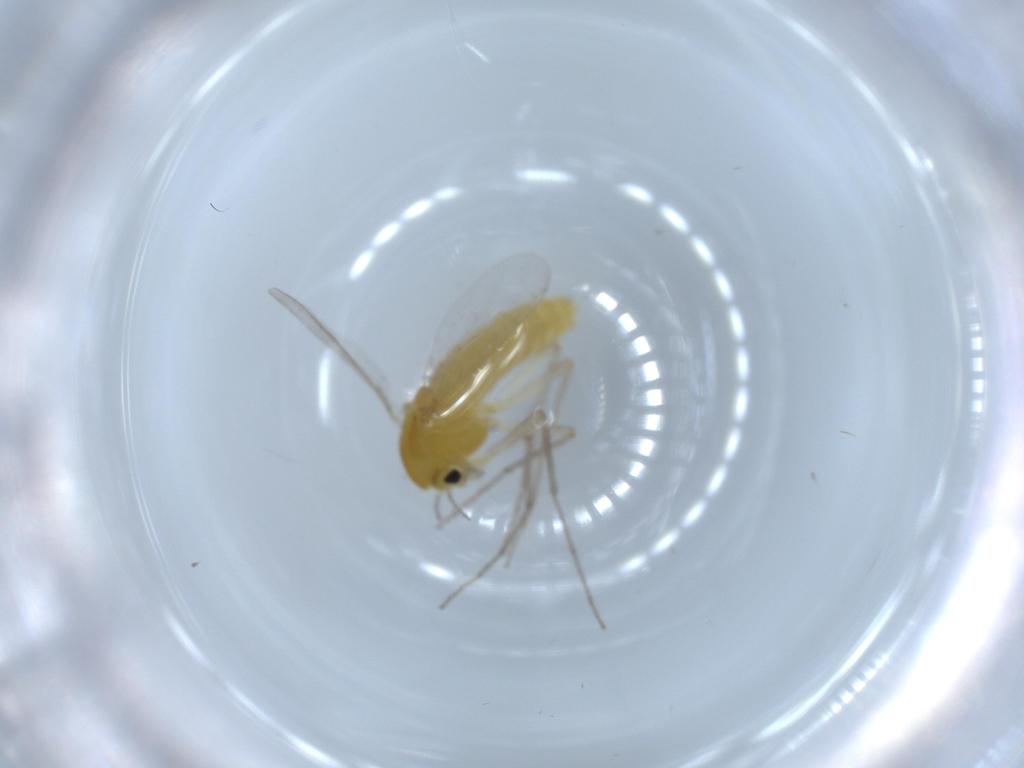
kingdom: Animalia
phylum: Arthropoda
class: Insecta
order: Diptera
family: Chironomidae
